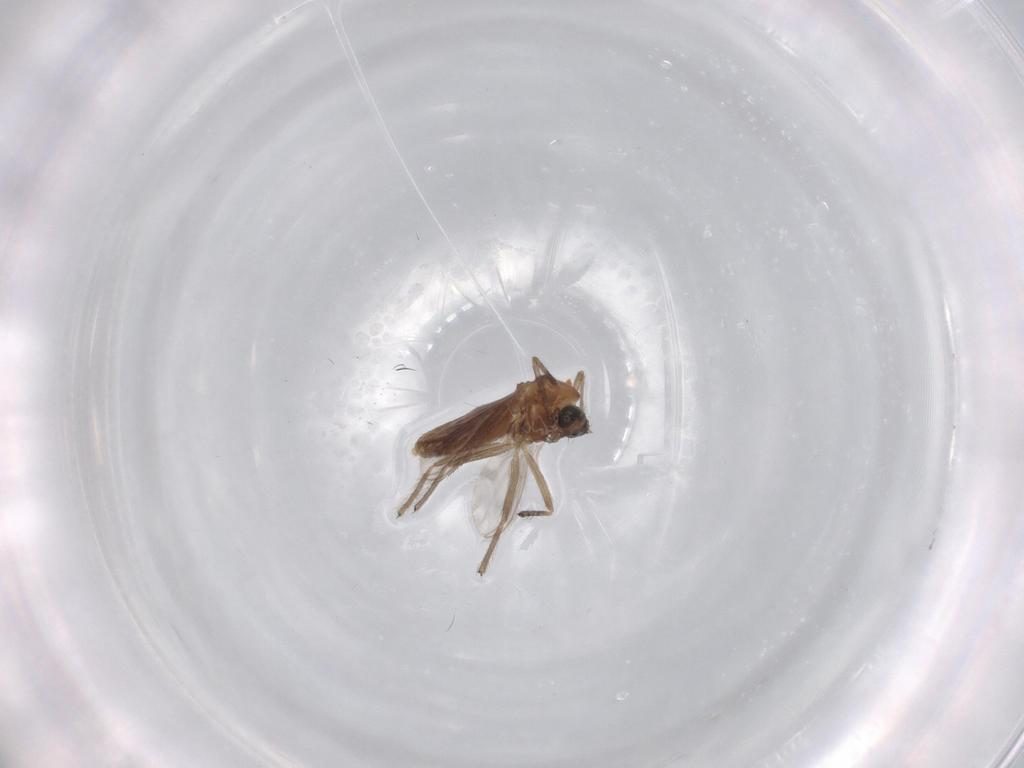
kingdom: Animalia
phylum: Arthropoda
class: Insecta
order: Diptera
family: Chironomidae
